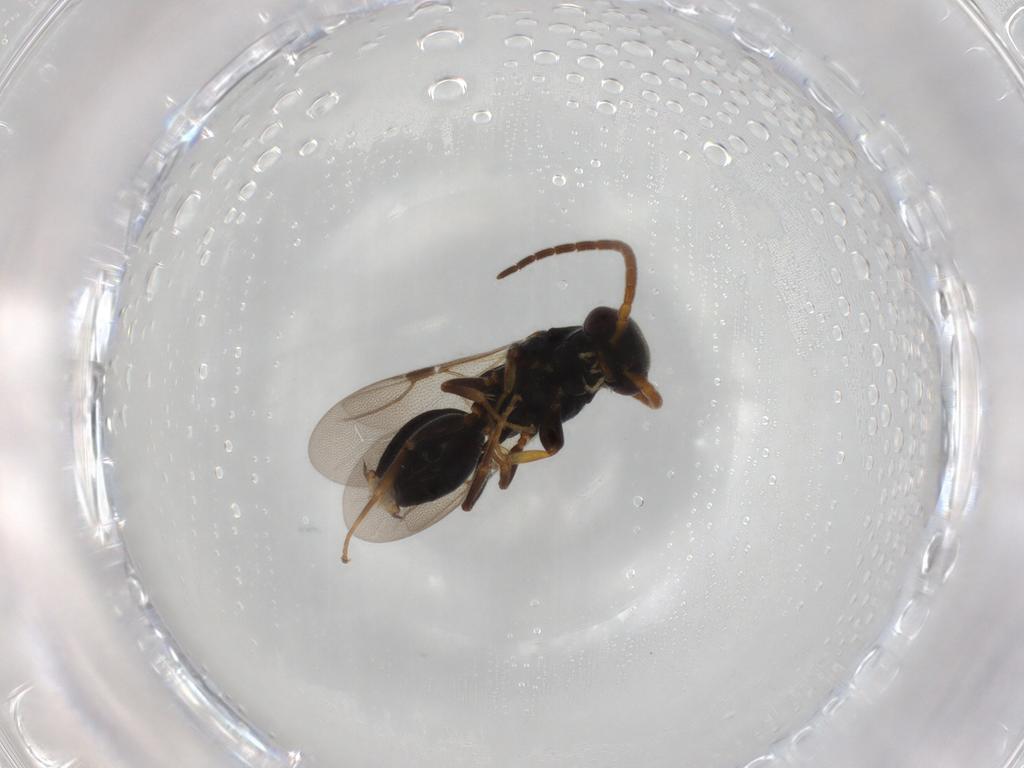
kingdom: Animalia
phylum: Arthropoda
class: Insecta
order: Hymenoptera
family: Bethylidae
